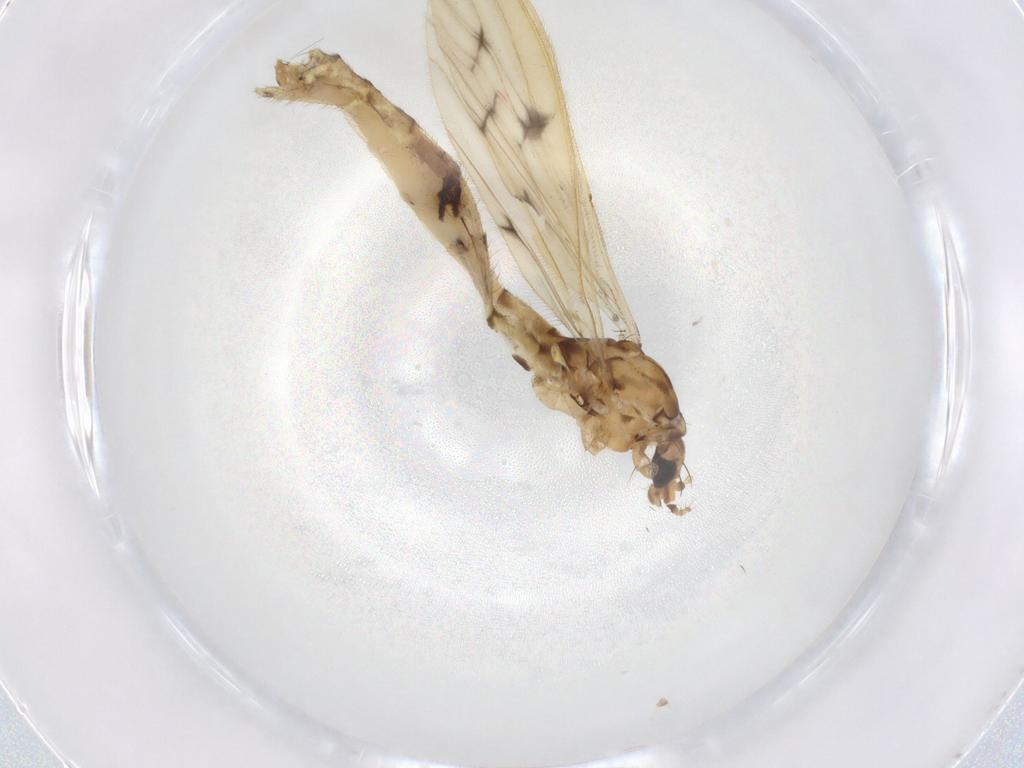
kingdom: Animalia
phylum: Arthropoda
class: Insecta
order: Diptera
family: Limoniidae
